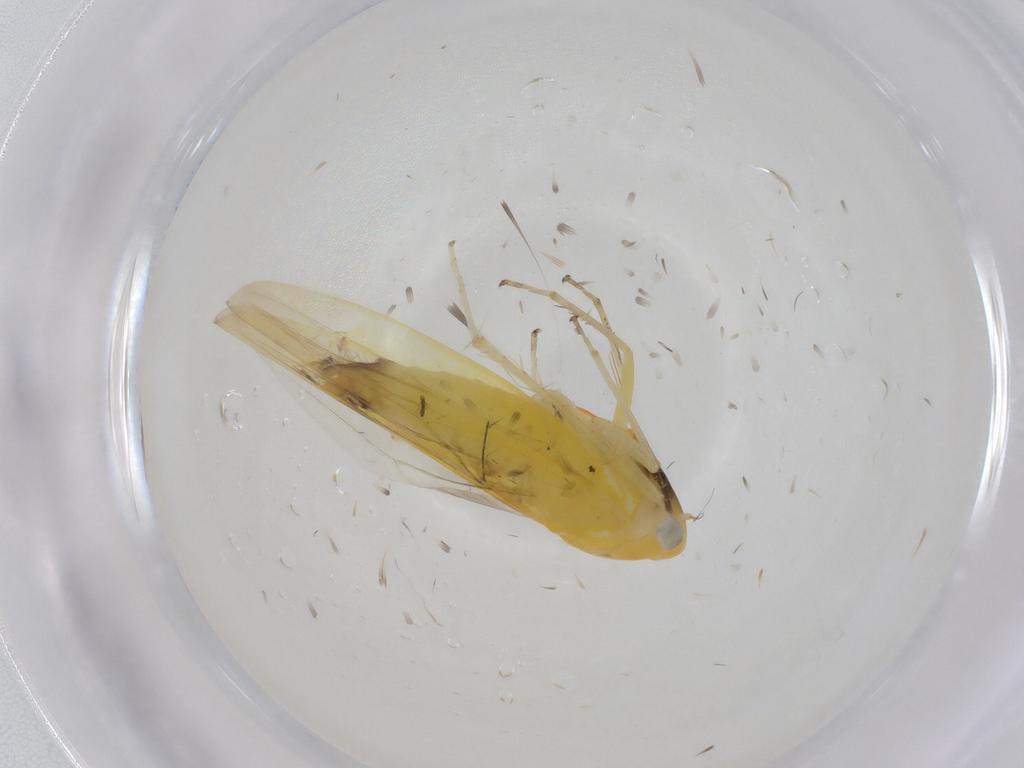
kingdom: Animalia
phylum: Arthropoda
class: Insecta
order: Hemiptera
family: Cicadellidae
